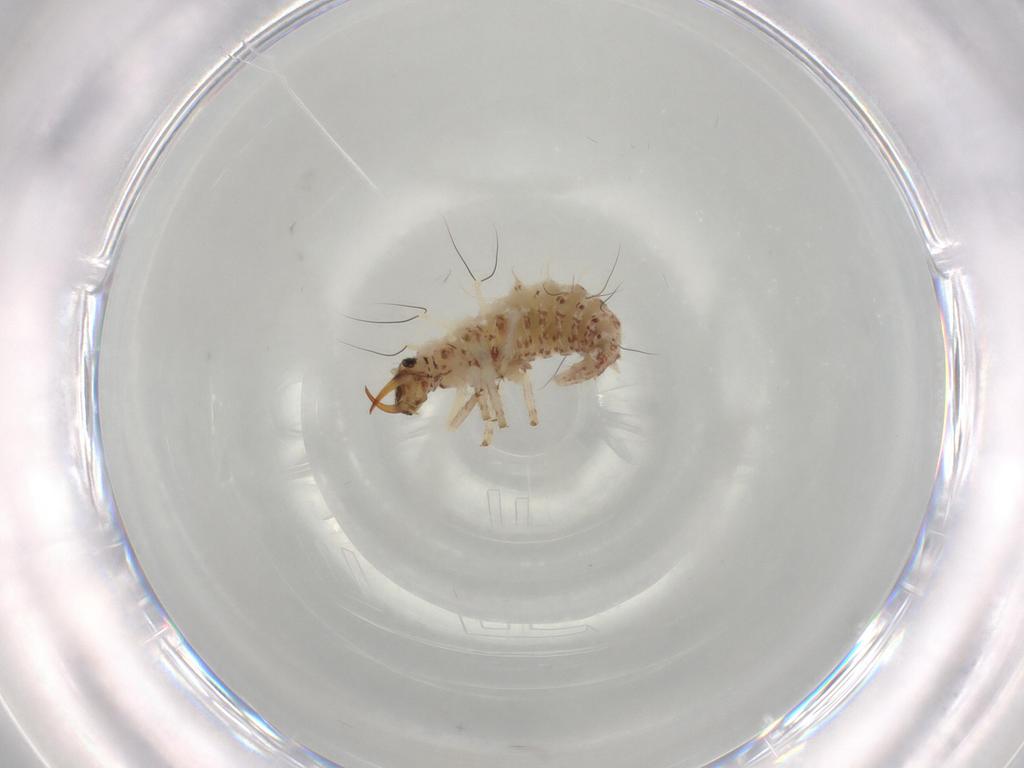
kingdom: Animalia
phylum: Arthropoda
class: Insecta
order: Neuroptera
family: Chrysopidae
